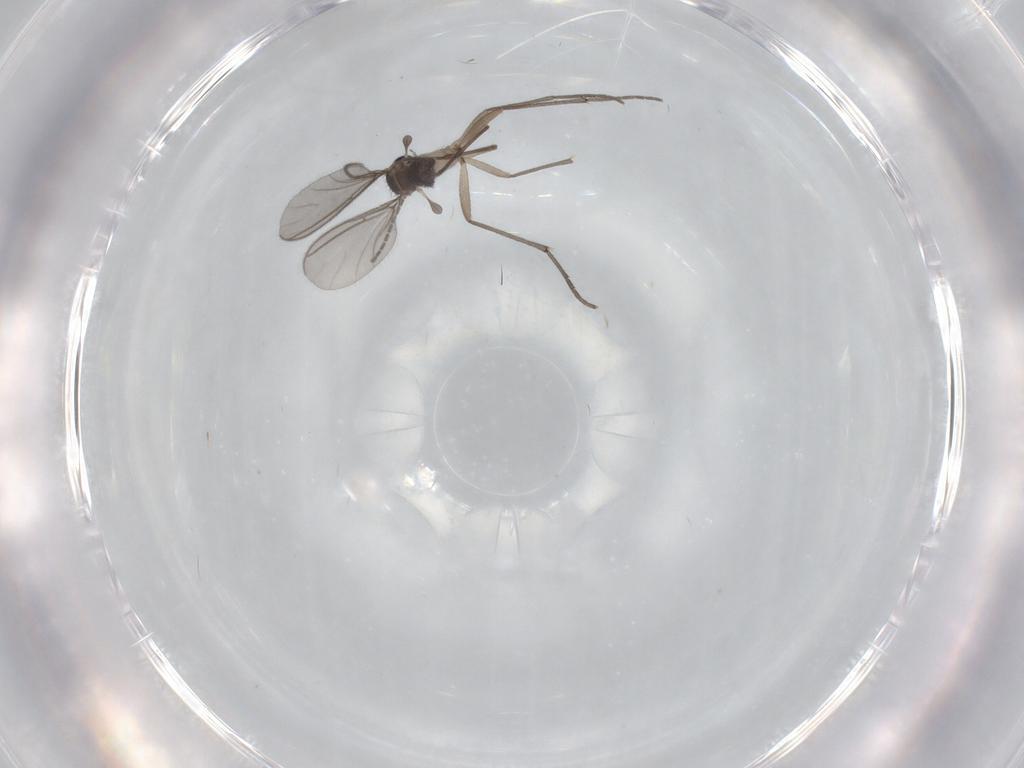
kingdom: Animalia
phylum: Arthropoda
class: Insecta
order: Diptera
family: Sciaridae
